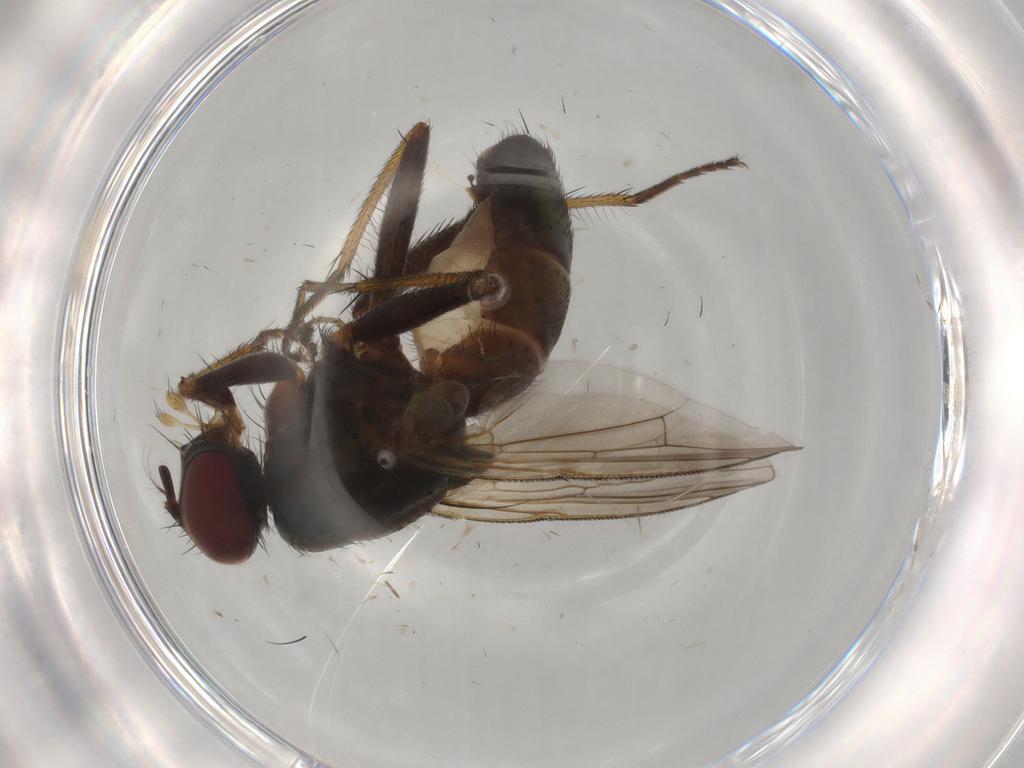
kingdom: Animalia
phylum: Arthropoda
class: Insecta
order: Diptera
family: Muscidae
